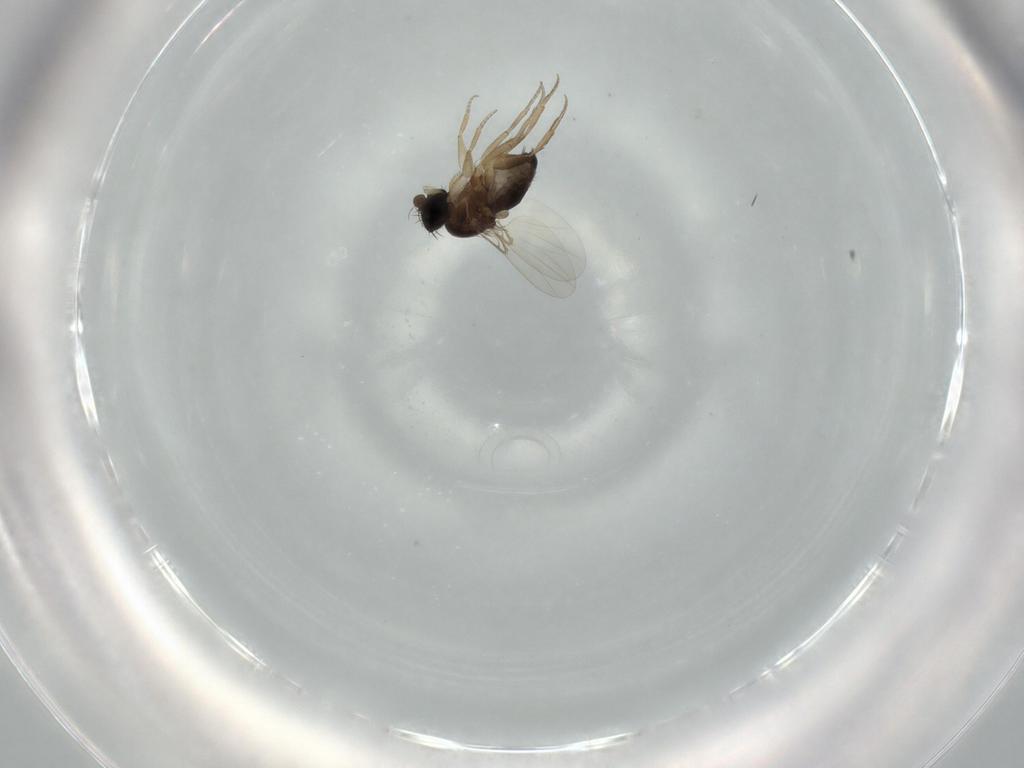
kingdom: Animalia
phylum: Arthropoda
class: Insecta
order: Diptera
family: Phoridae
